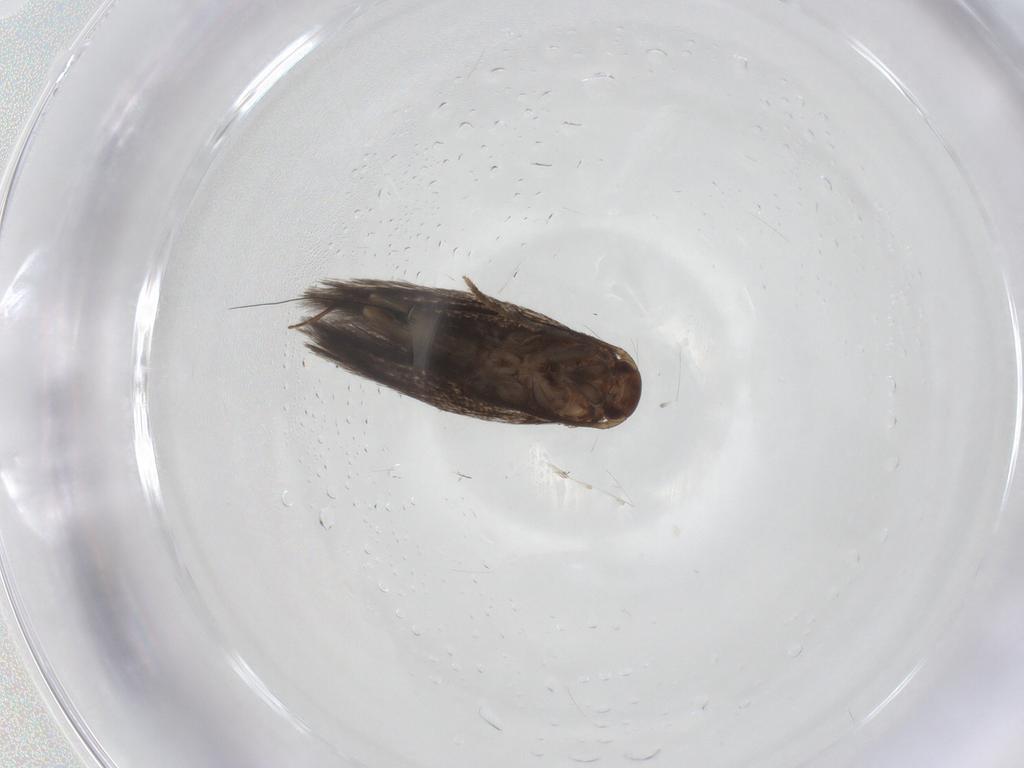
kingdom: Animalia
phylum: Arthropoda
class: Insecta
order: Lepidoptera
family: Elachistidae
